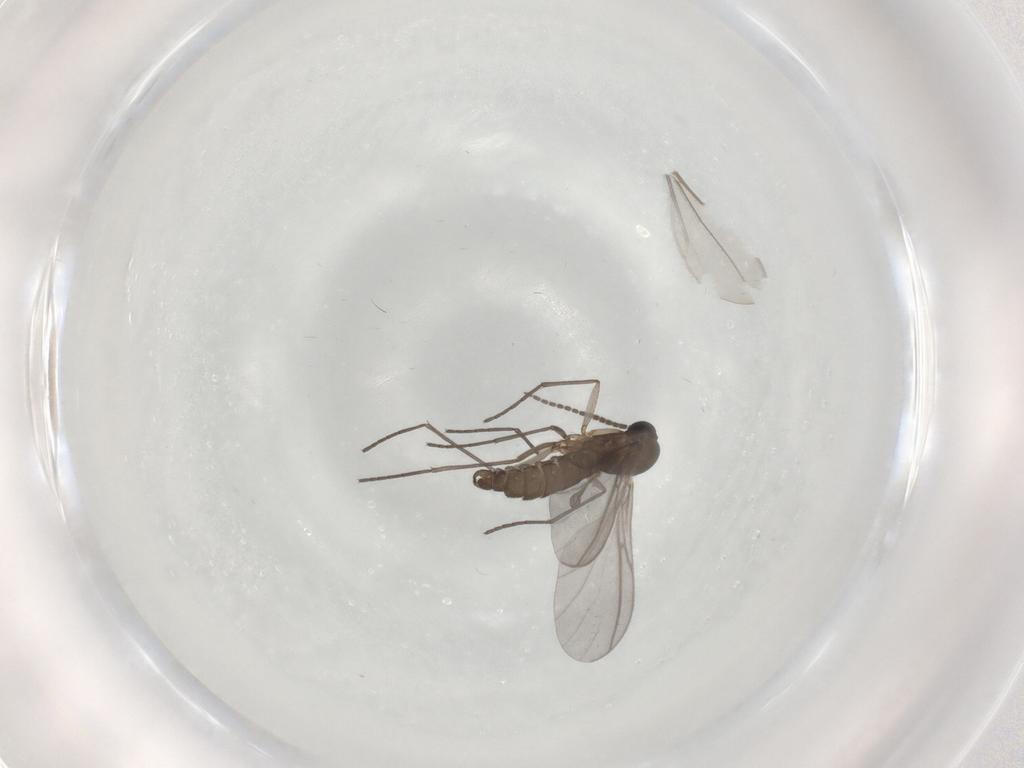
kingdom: Animalia
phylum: Arthropoda
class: Insecta
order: Diptera
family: Sciaridae
